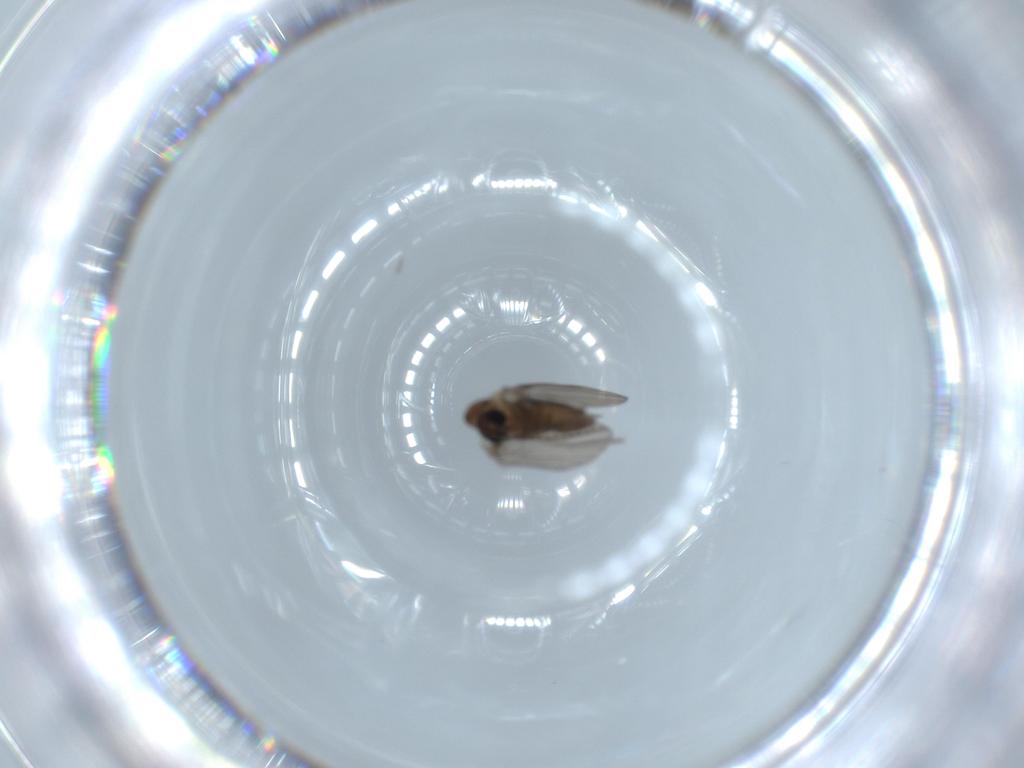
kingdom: Animalia
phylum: Arthropoda
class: Insecta
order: Diptera
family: Psychodidae
